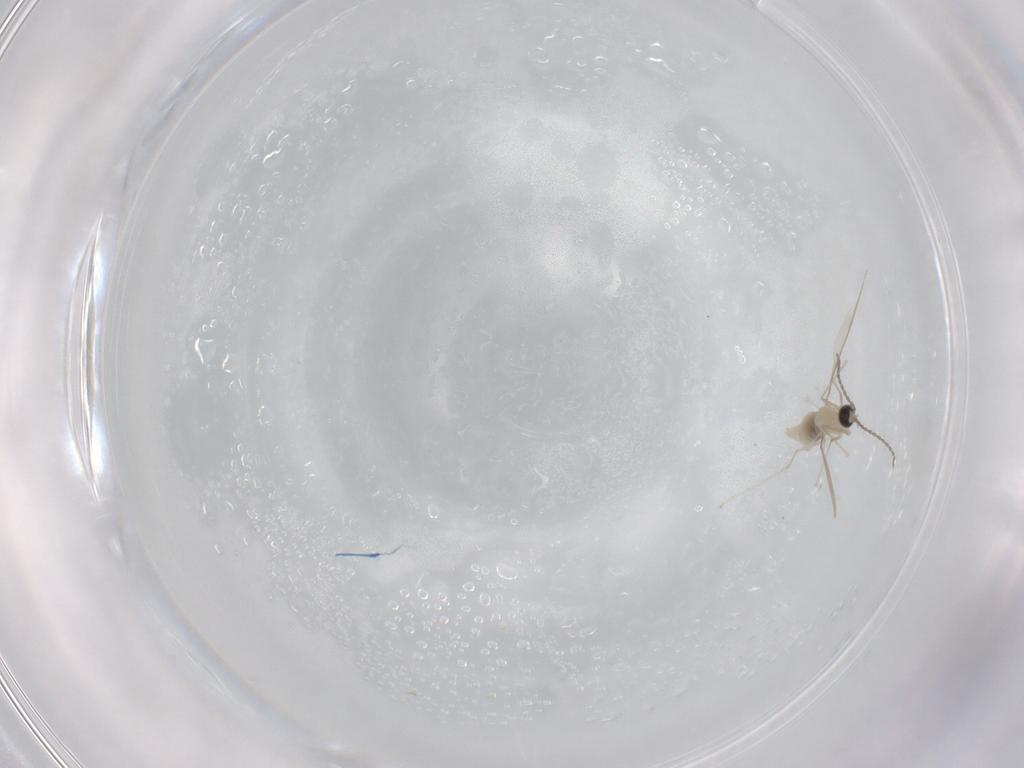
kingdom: Animalia
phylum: Arthropoda
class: Insecta
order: Diptera
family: Cecidomyiidae
